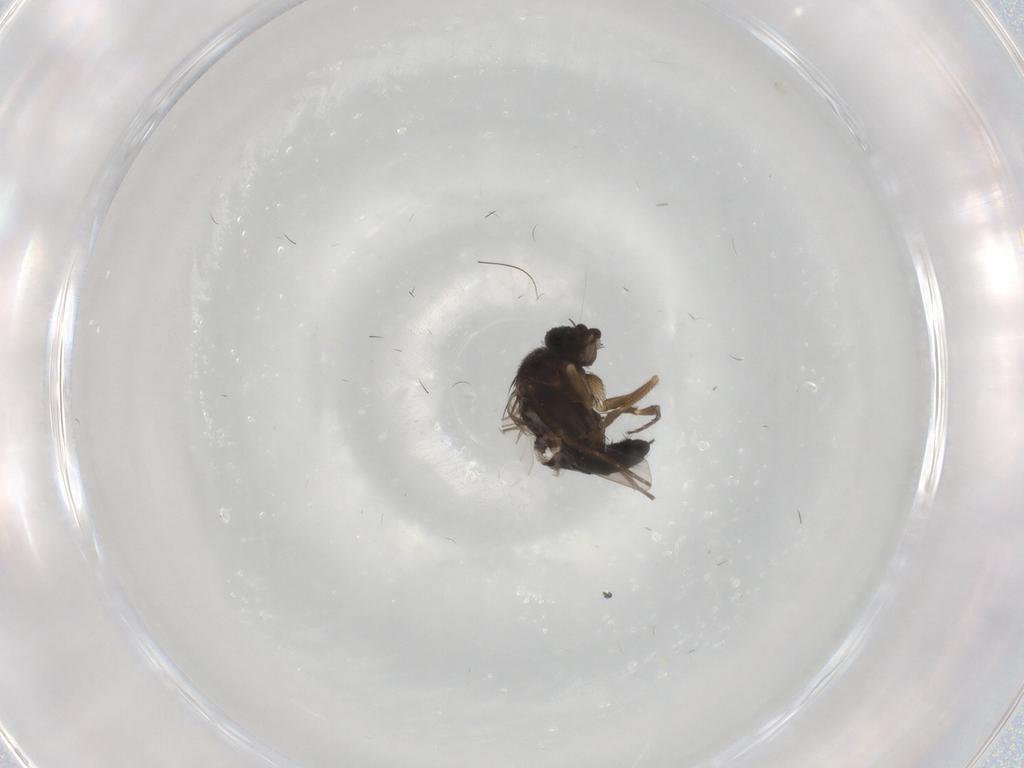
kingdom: Animalia
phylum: Arthropoda
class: Insecta
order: Diptera
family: Phoridae
